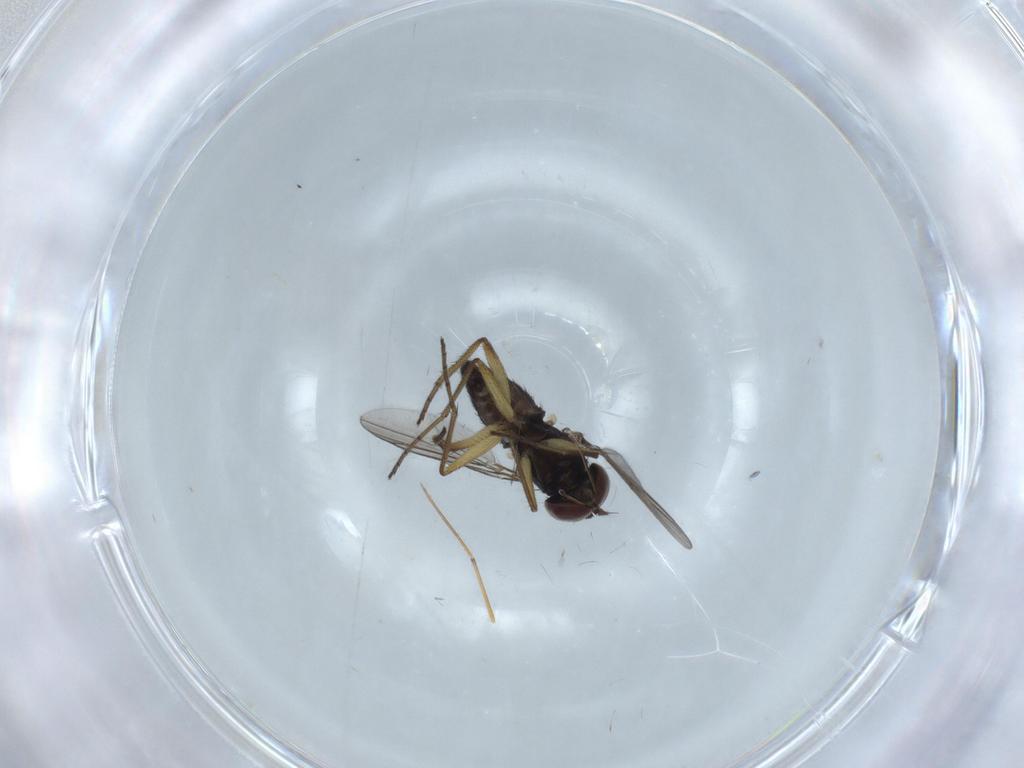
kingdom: Animalia
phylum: Arthropoda
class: Insecta
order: Diptera
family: Dolichopodidae
